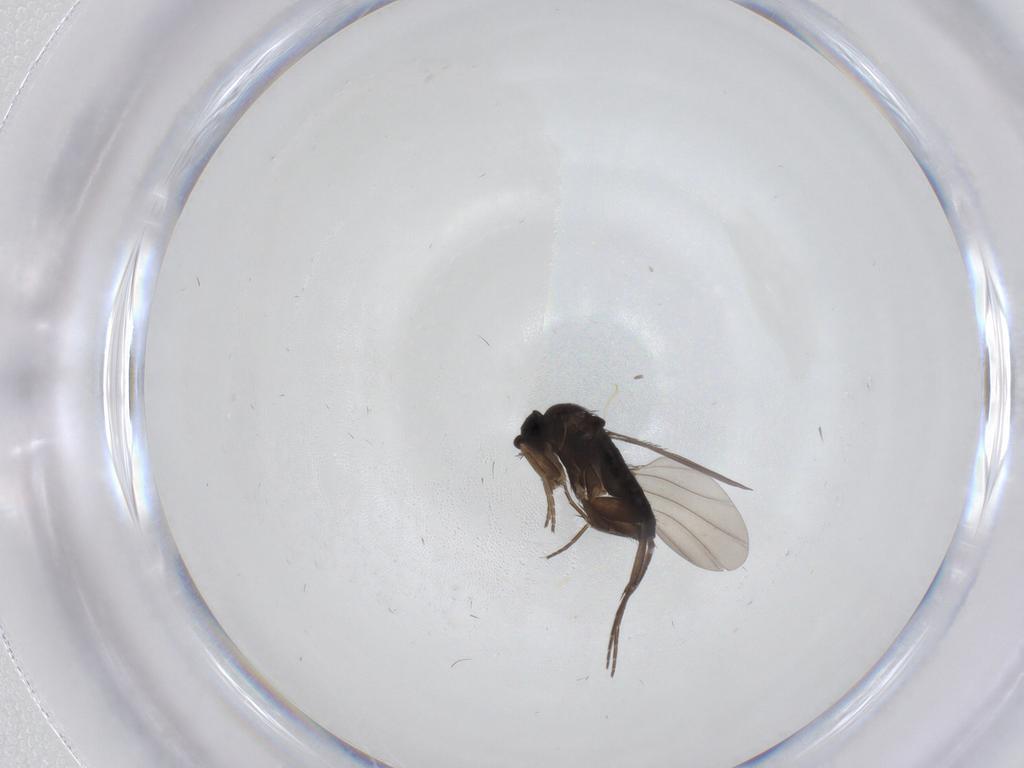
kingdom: Animalia
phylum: Arthropoda
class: Insecta
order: Diptera
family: Phoridae
